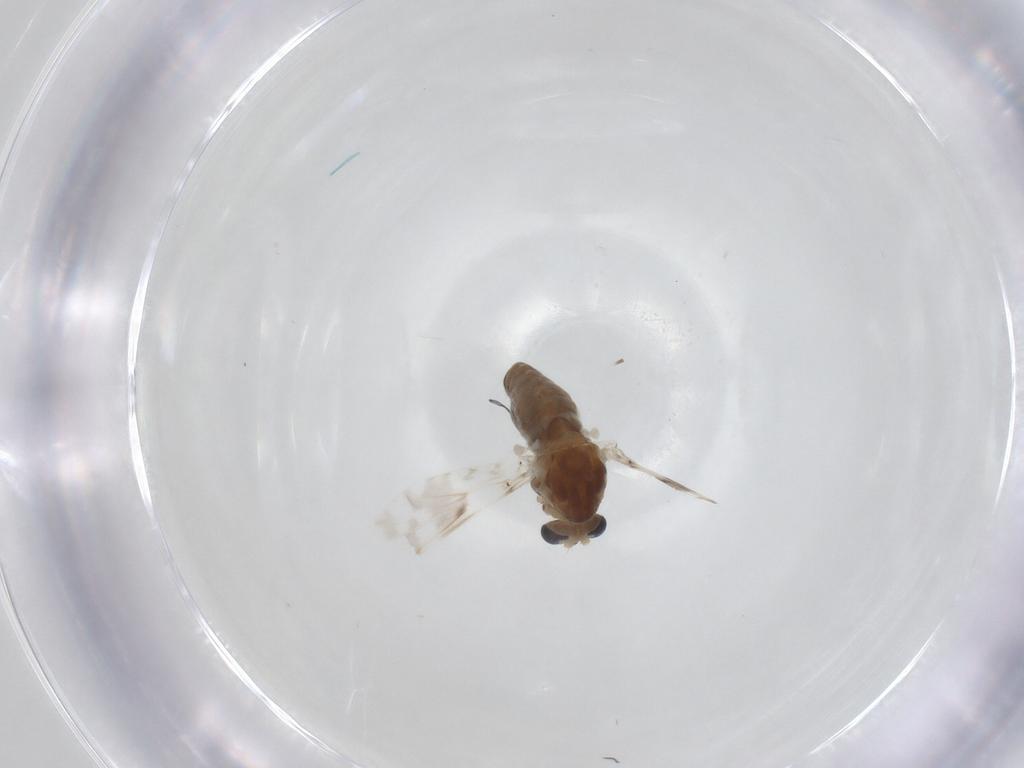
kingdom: Animalia
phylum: Arthropoda
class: Insecta
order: Diptera
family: Chironomidae
